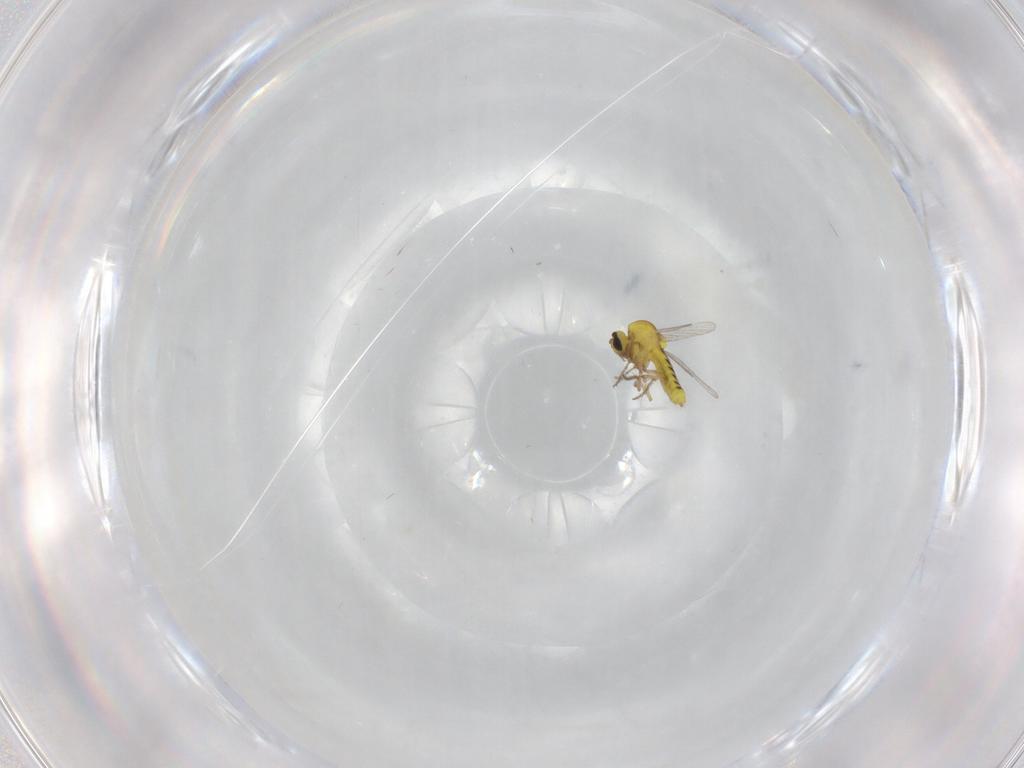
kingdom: Animalia
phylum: Arthropoda
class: Insecta
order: Diptera
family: Ceratopogonidae
